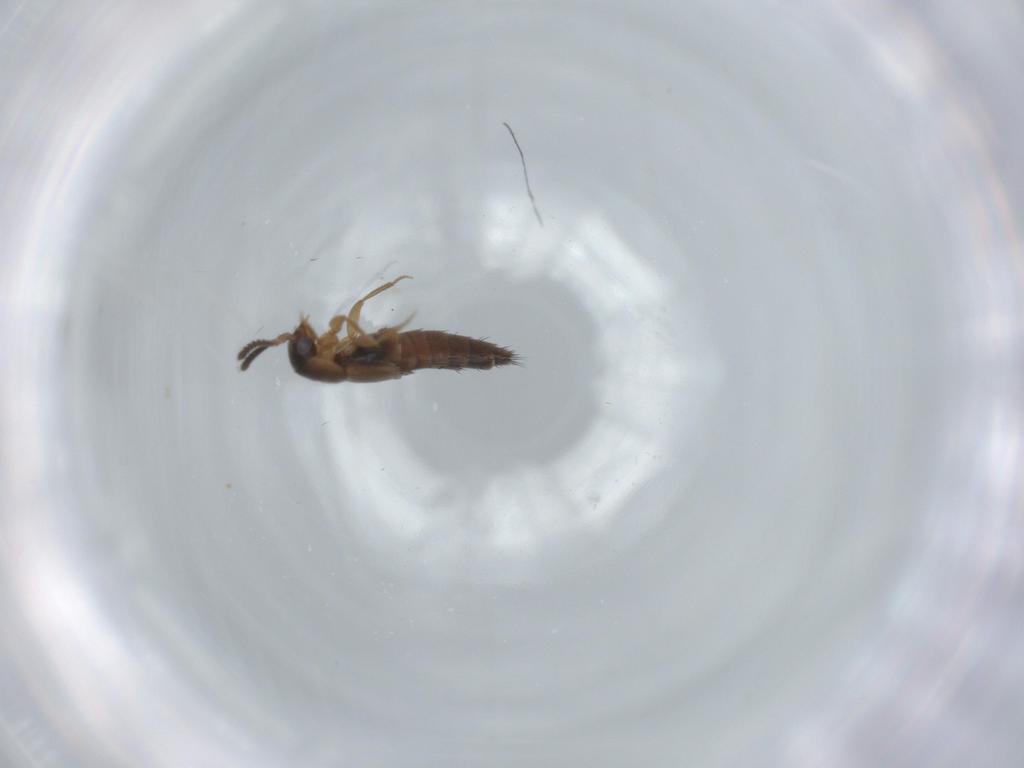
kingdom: Animalia
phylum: Arthropoda
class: Insecta
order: Coleoptera
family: Staphylinidae
